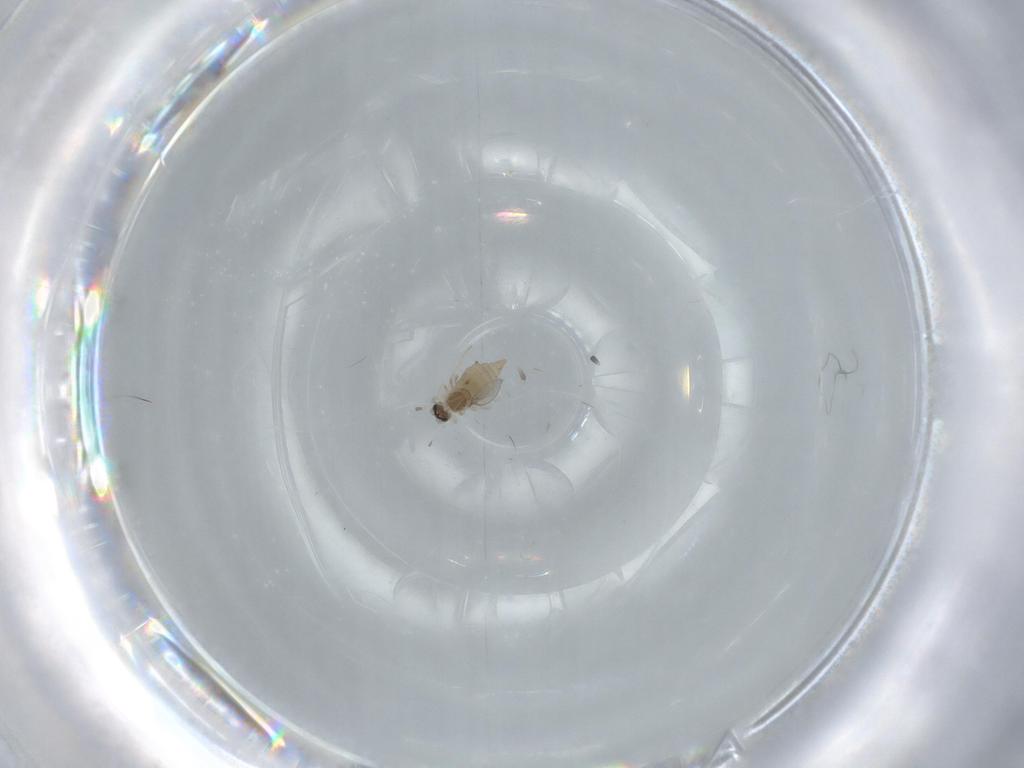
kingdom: Animalia
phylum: Arthropoda
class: Insecta
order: Diptera
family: Cecidomyiidae
